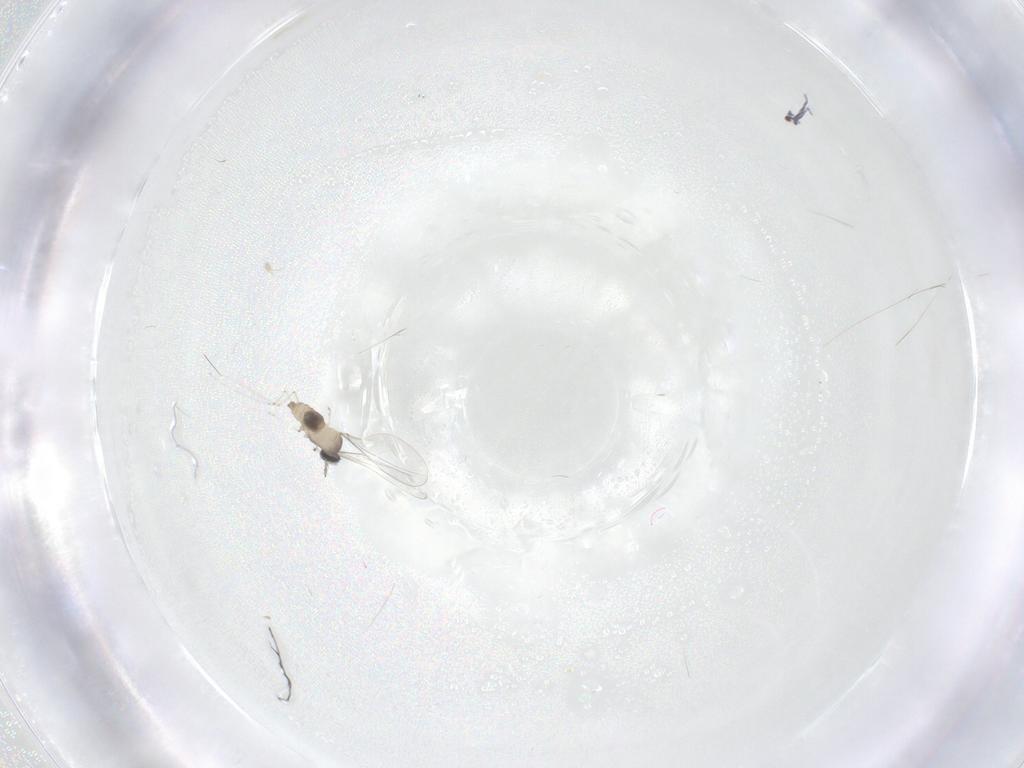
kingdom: Animalia
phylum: Arthropoda
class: Insecta
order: Diptera
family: Cecidomyiidae
